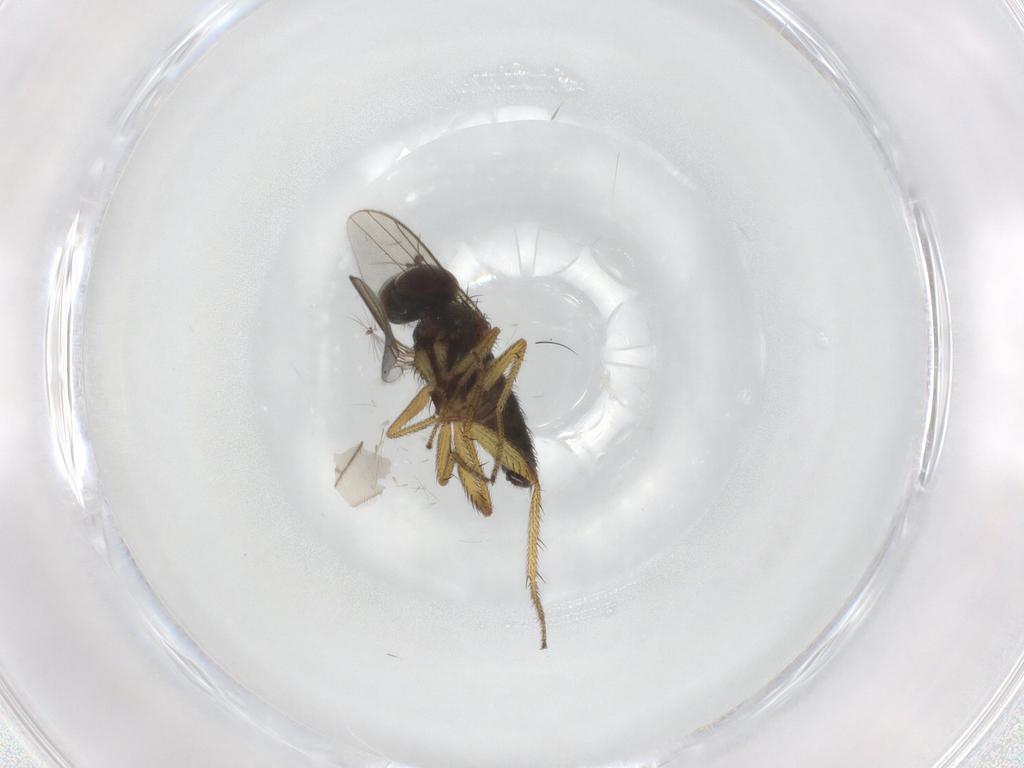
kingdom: Animalia
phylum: Arthropoda
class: Insecta
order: Diptera
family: Chironomidae
